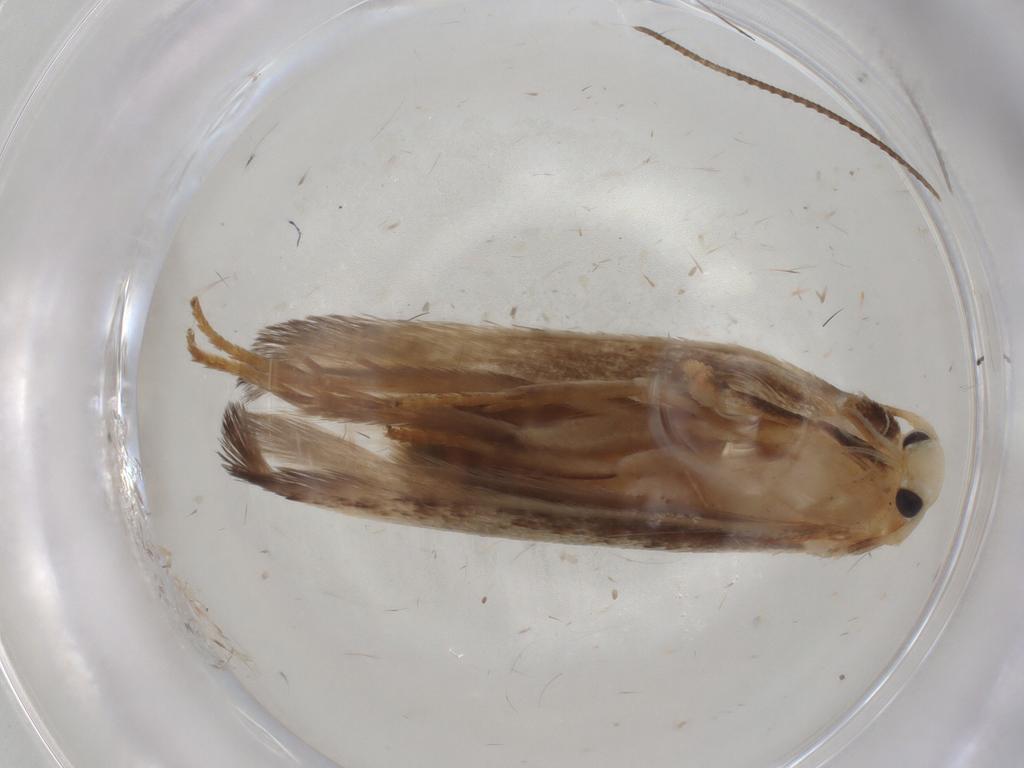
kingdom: Animalia
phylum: Arthropoda
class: Insecta
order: Lepidoptera
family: Geometridae
